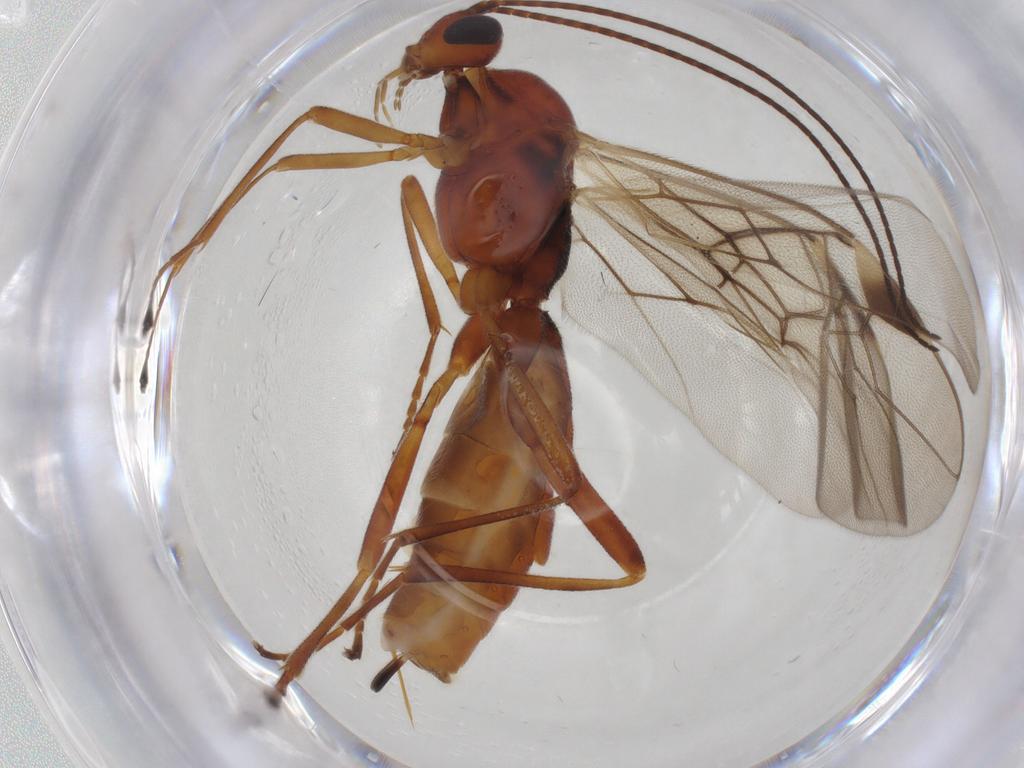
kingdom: Animalia
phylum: Arthropoda
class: Insecta
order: Hymenoptera
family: Braconidae
